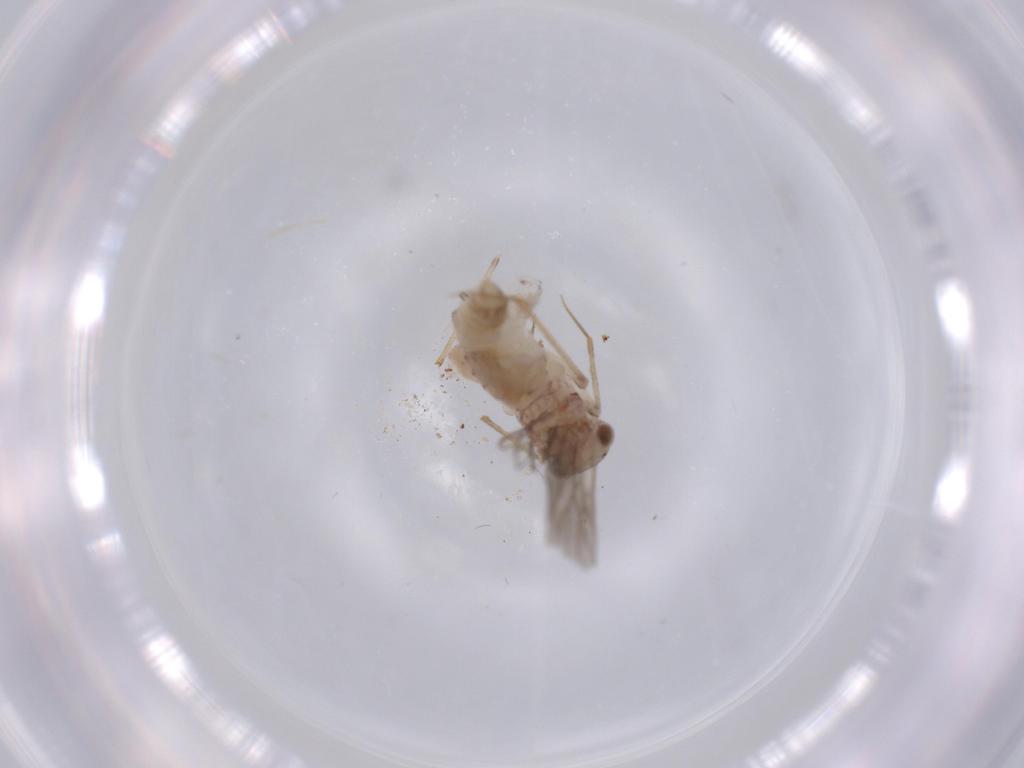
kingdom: Animalia
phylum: Arthropoda
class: Insecta
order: Psocodea
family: Lepidopsocidae
